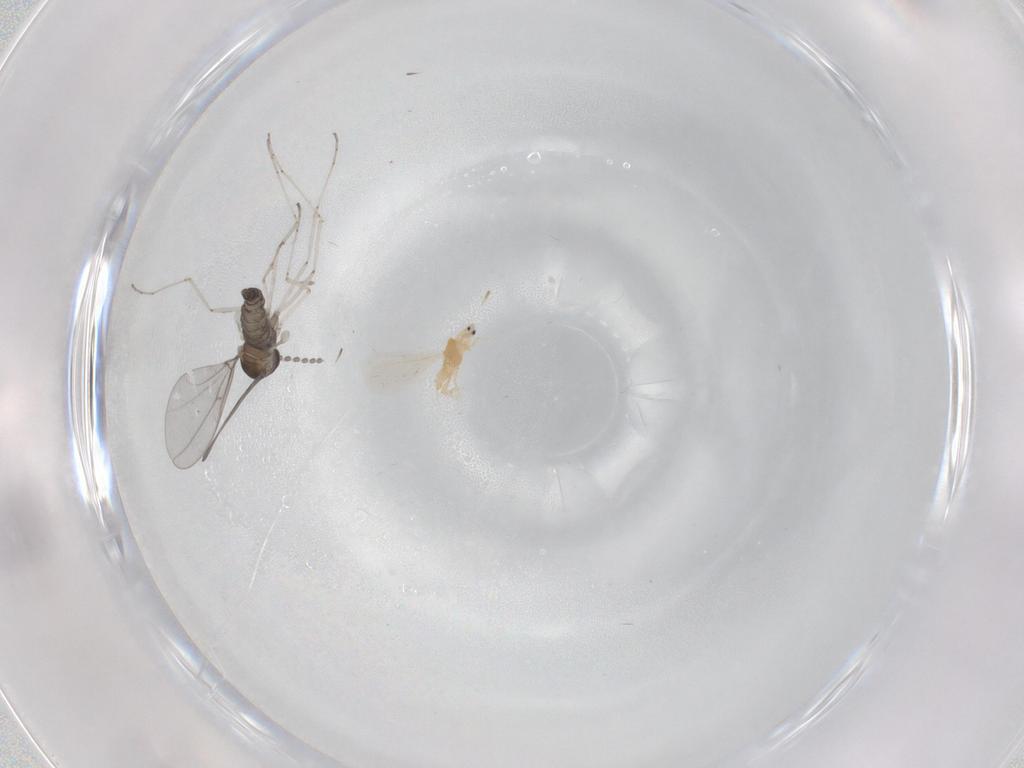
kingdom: Animalia
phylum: Arthropoda
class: Insecta
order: Diptera
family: Cecidomyiidae
